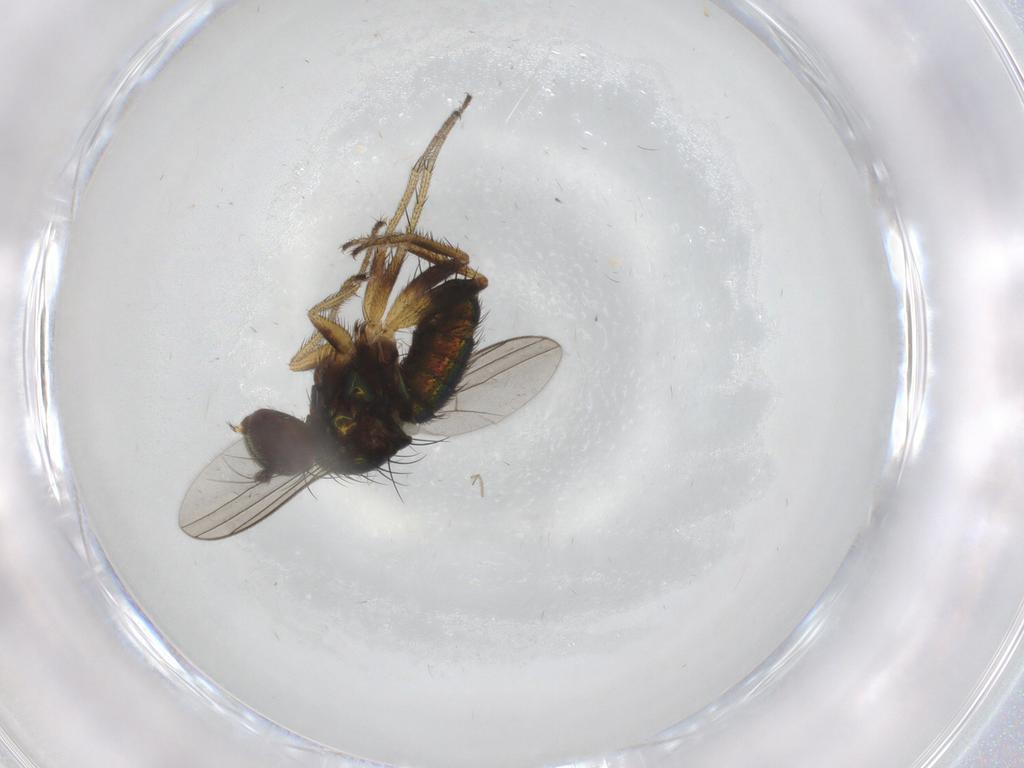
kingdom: Animalia
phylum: Arthropoda
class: Insecta
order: Diptera
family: Dolichopodidae
